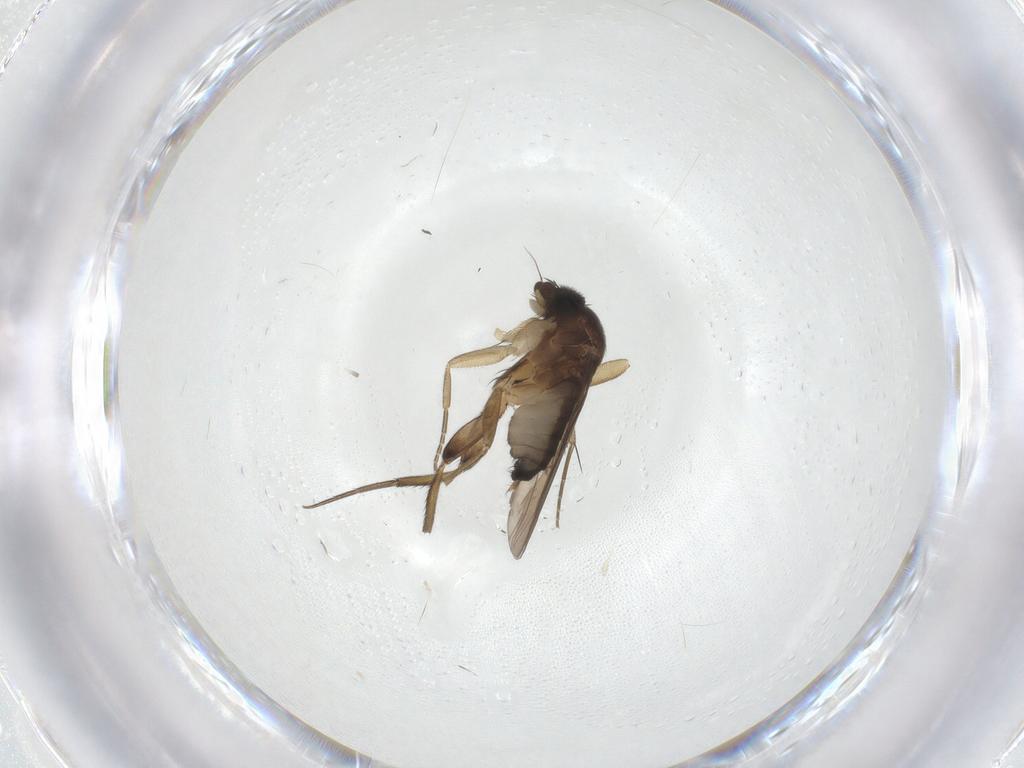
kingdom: Animalia
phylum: Arthropoda
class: Insecta
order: Diptera
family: Phoridae
